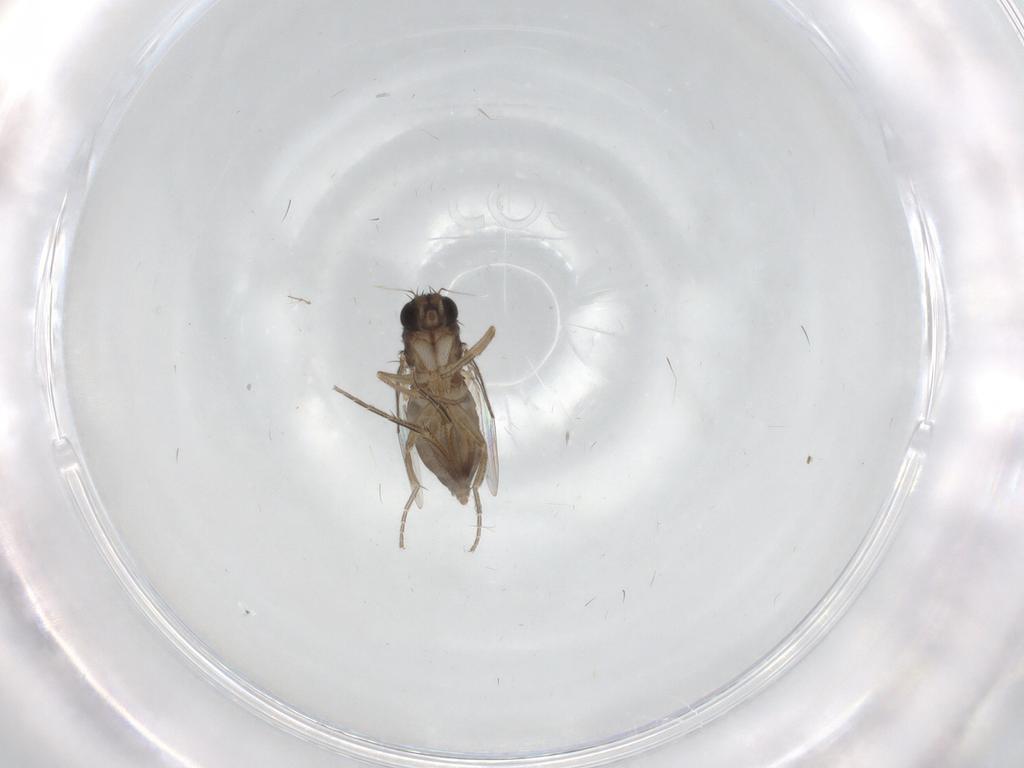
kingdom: Animalia
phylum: Arthropoda
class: Insecta
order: Diptera
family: Phoridae
